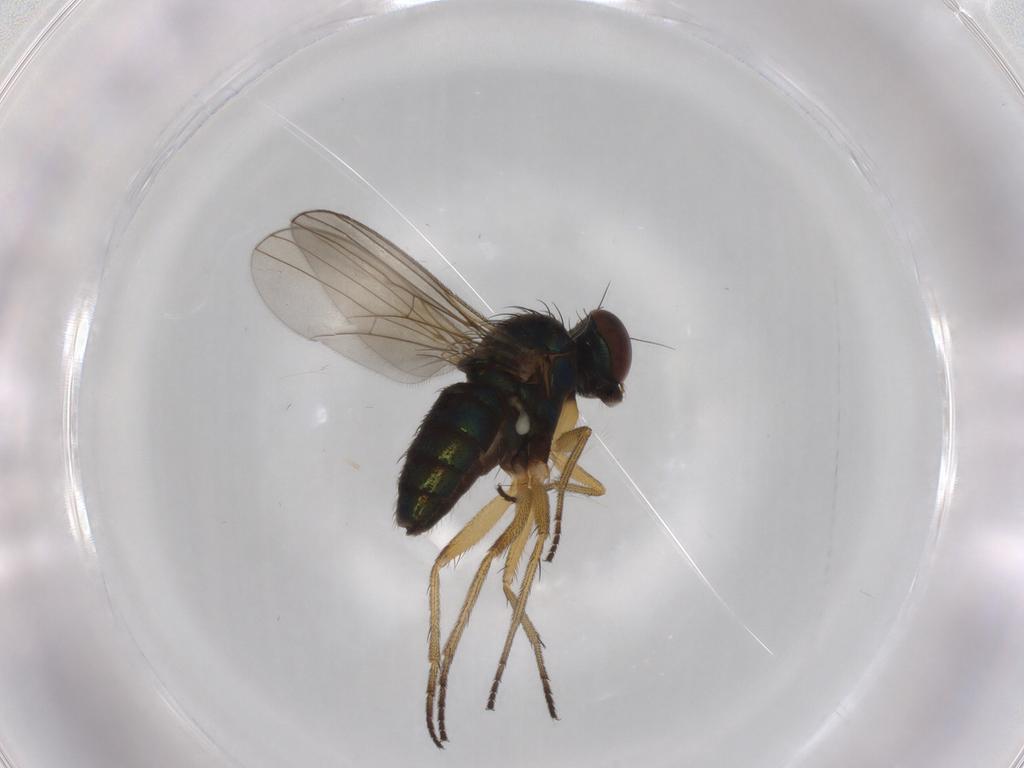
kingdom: Animalia
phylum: Arthropoda
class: Insecta
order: Diptera
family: Dolichopodidae
